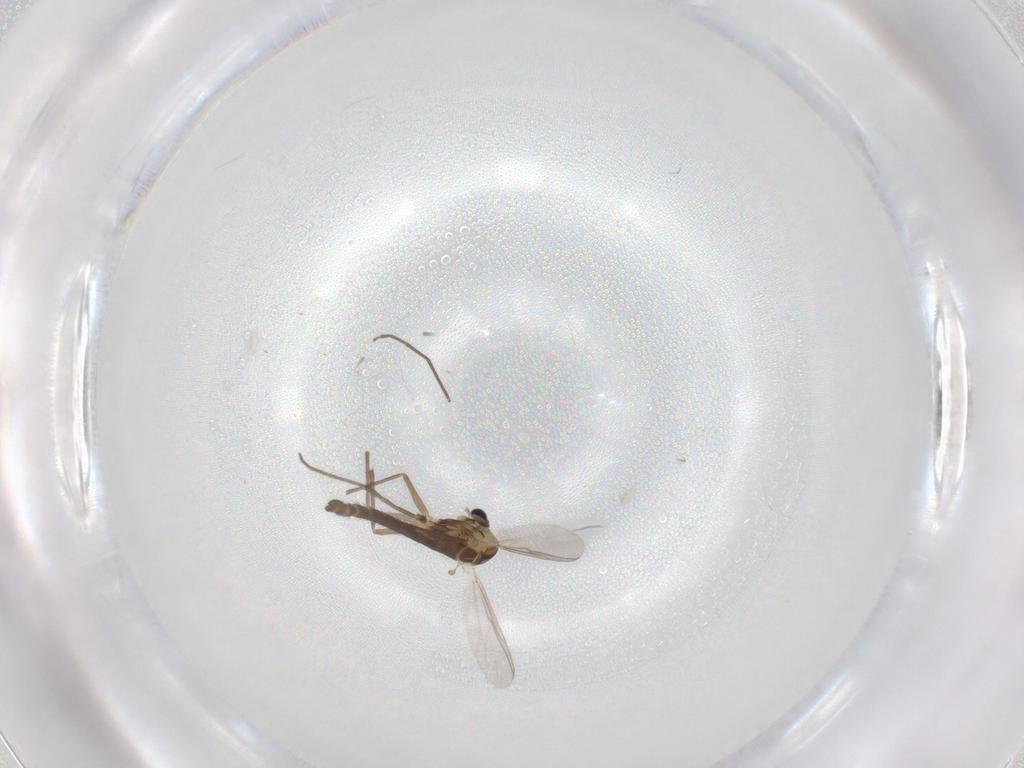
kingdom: Animalia
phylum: Arthropoda
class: Insecta
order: Diptera
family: Chironomidae
